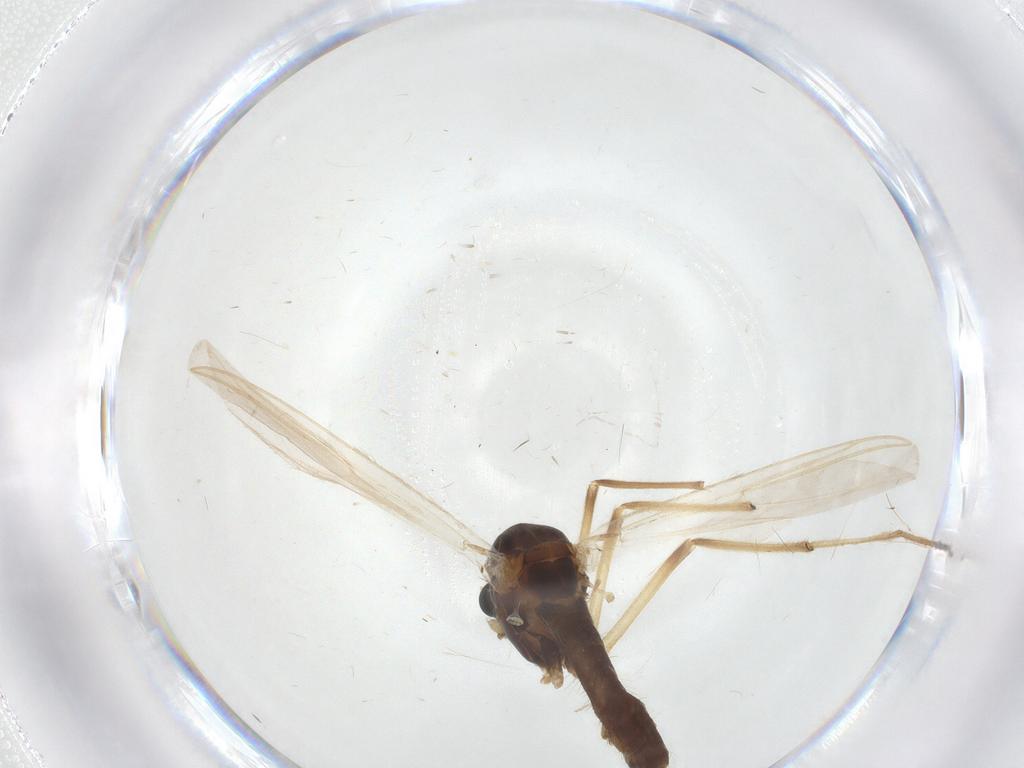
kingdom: Animalia
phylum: Arthropoda
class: Insecta
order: Diptera
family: Chironomidae
